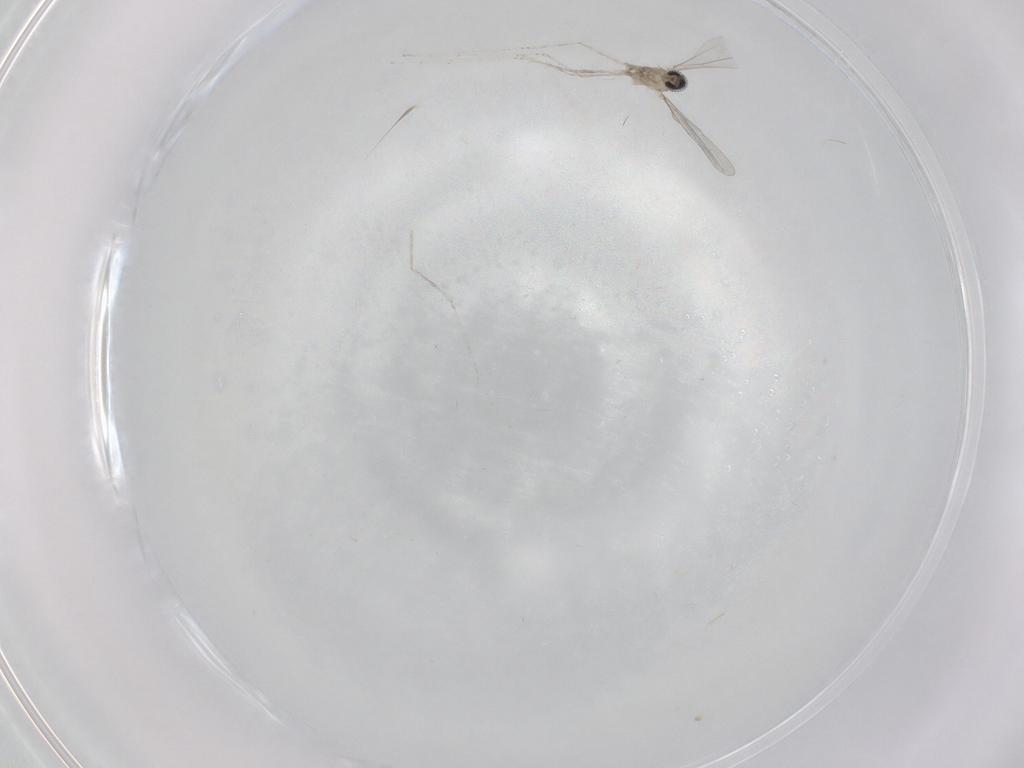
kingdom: Animalia
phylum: Arthropoda
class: Insecta
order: Diptera
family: Cecidomyiidae
